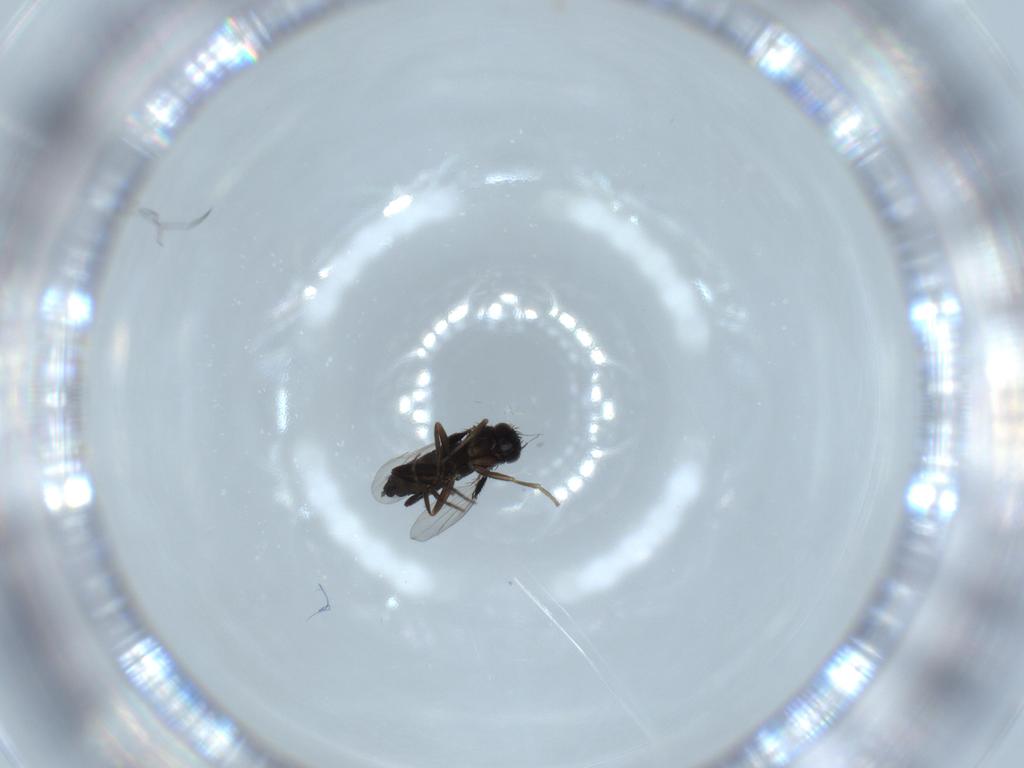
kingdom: Animalia
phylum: Arthropoda
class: Insecta
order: Diptera
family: Phoridae
